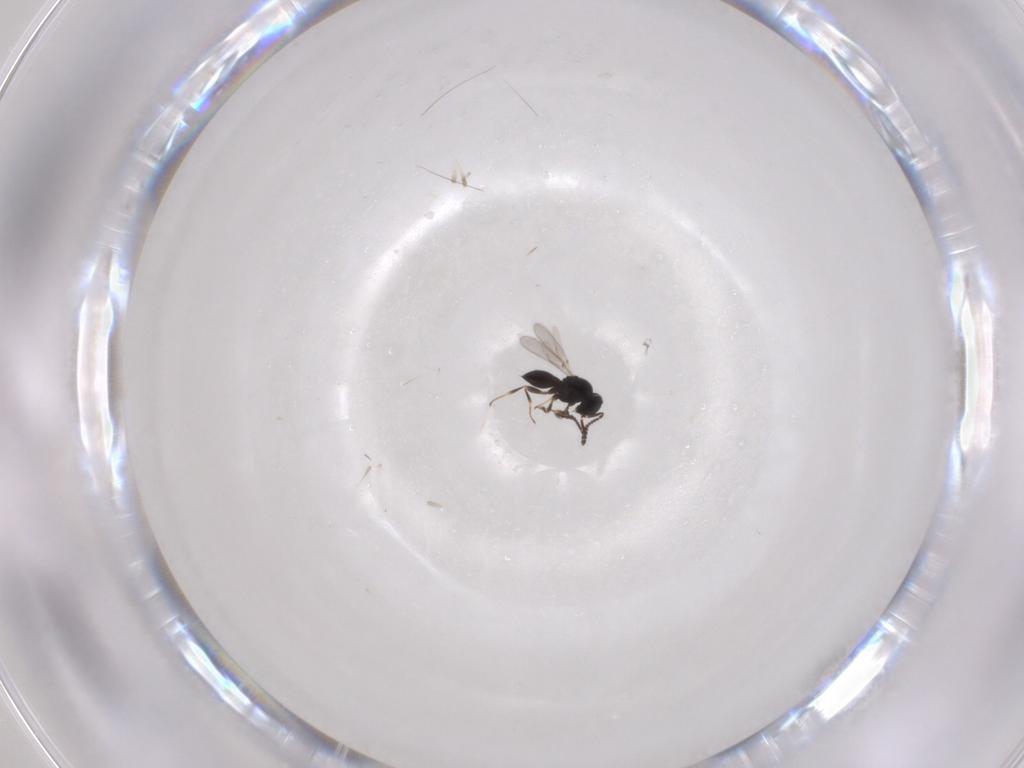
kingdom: Animalia
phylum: Arthropoda
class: Insecta
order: Hymenoptera
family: Scelionidae
